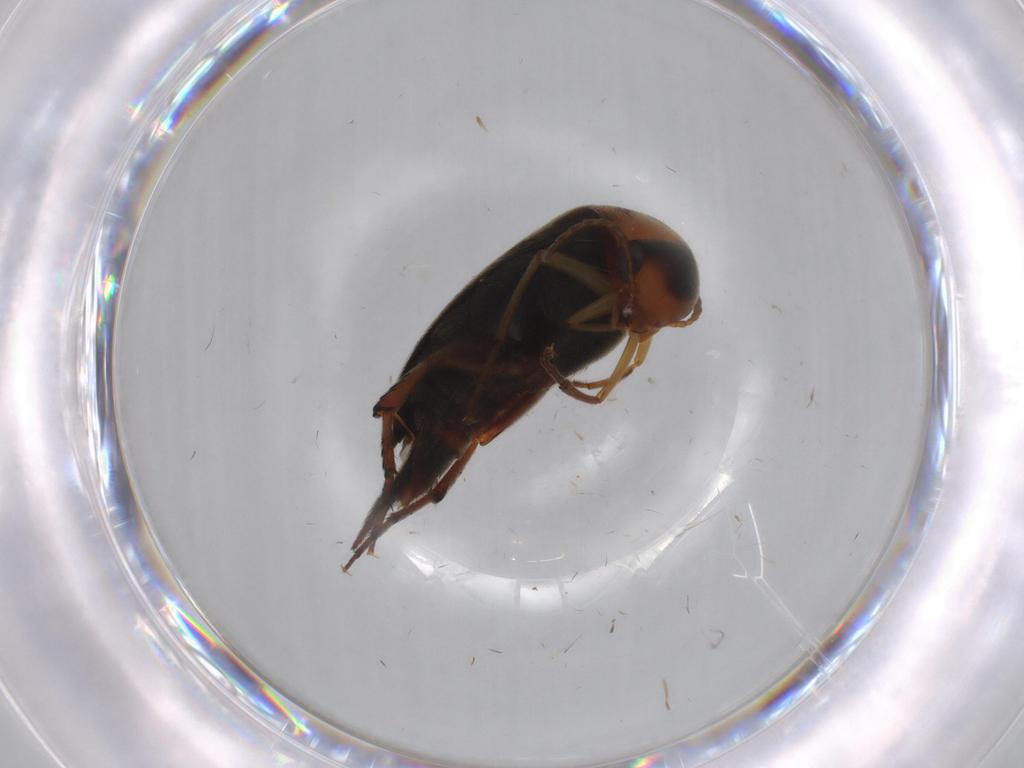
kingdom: Animalia
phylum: Arthropoda
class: Insecta
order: Coleoptera
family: Mordellidae
